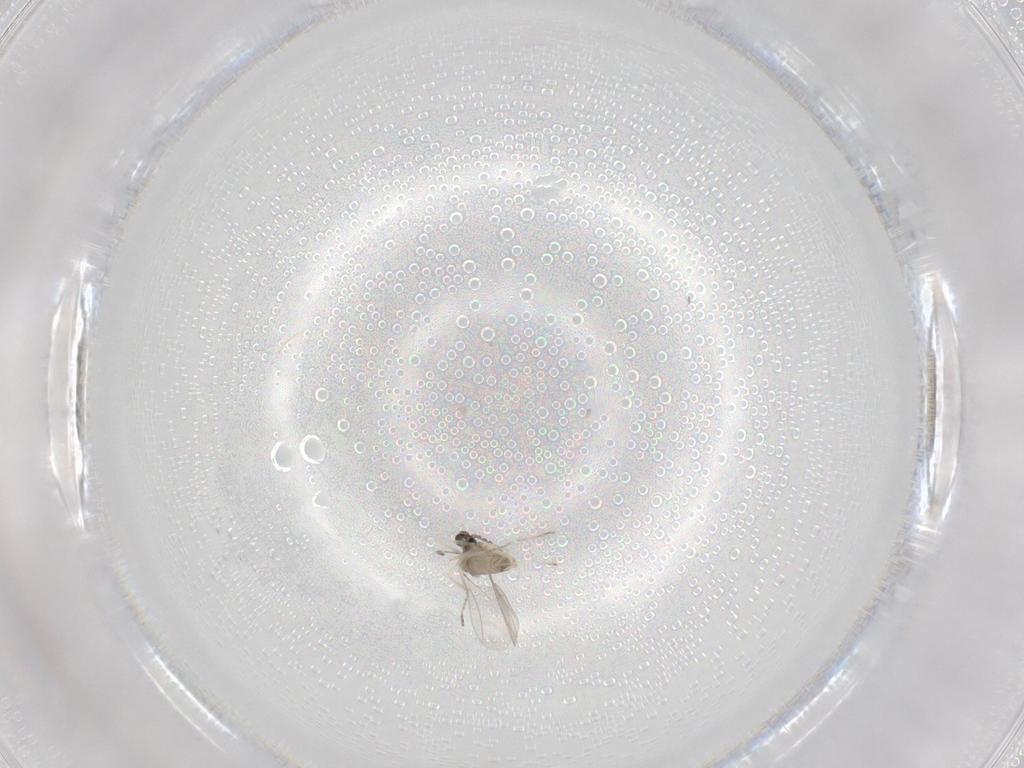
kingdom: Animalia
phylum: Arthropoda
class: Insecta
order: Diptera
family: Cecidomyiidae
